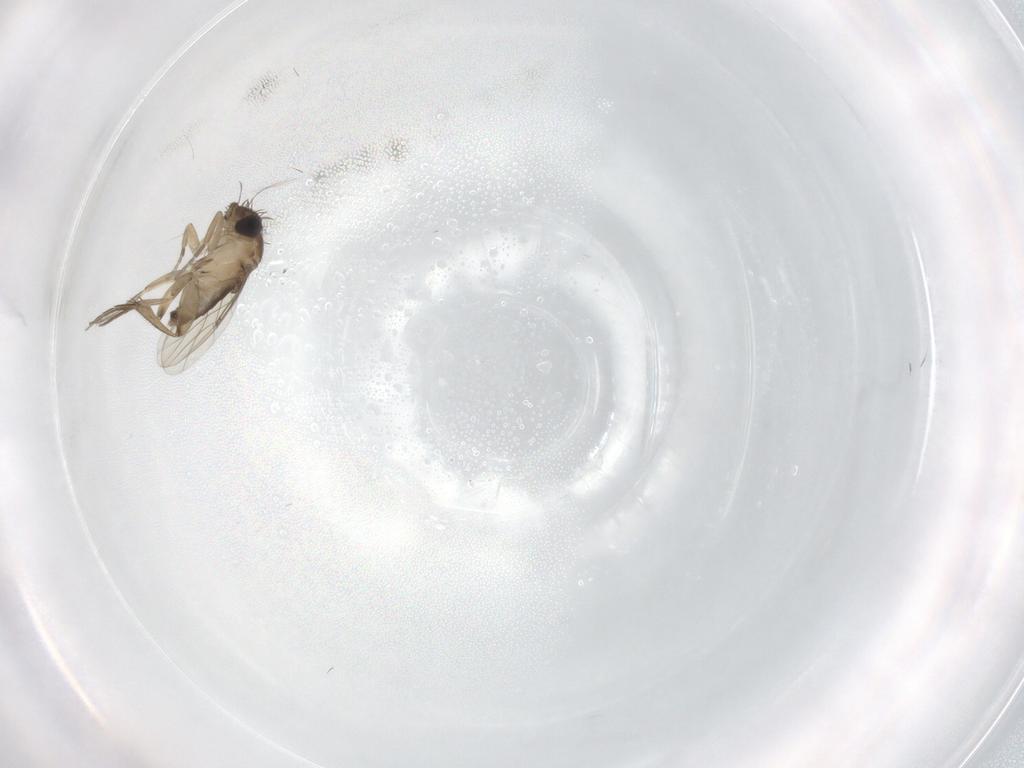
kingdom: Animalia
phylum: Arthropoda
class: Insecta
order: Diptera
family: Phoridae
